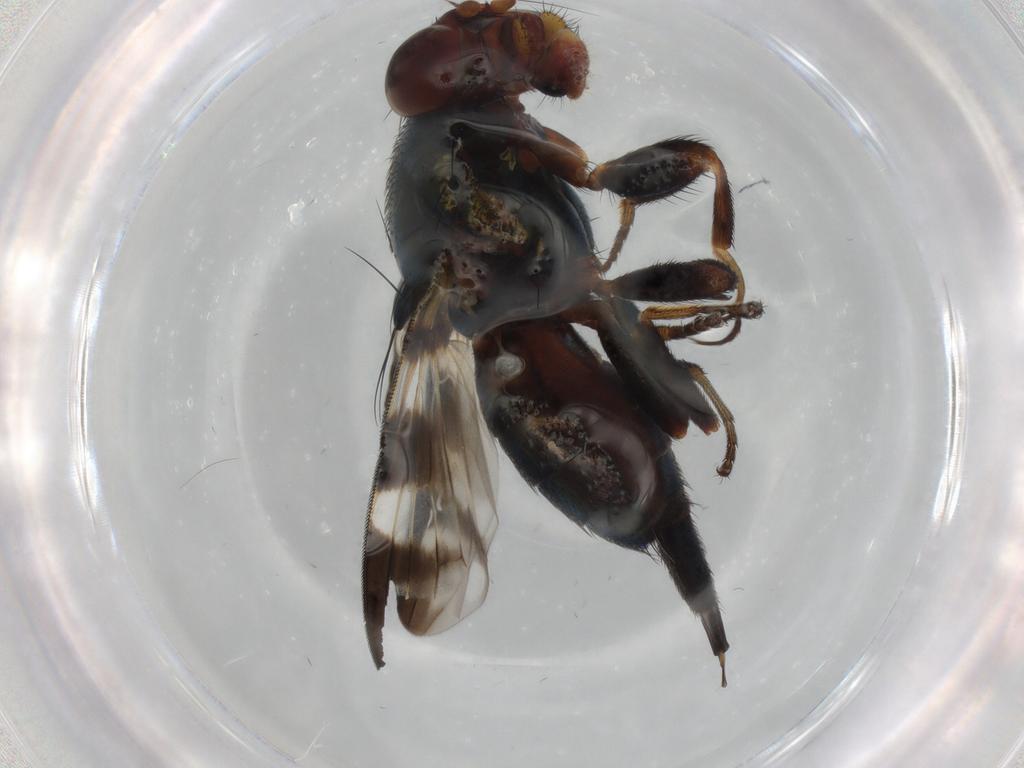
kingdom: Animalia
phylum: Arthropoda
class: Insecta
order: Diptera
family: Ulidiidae
